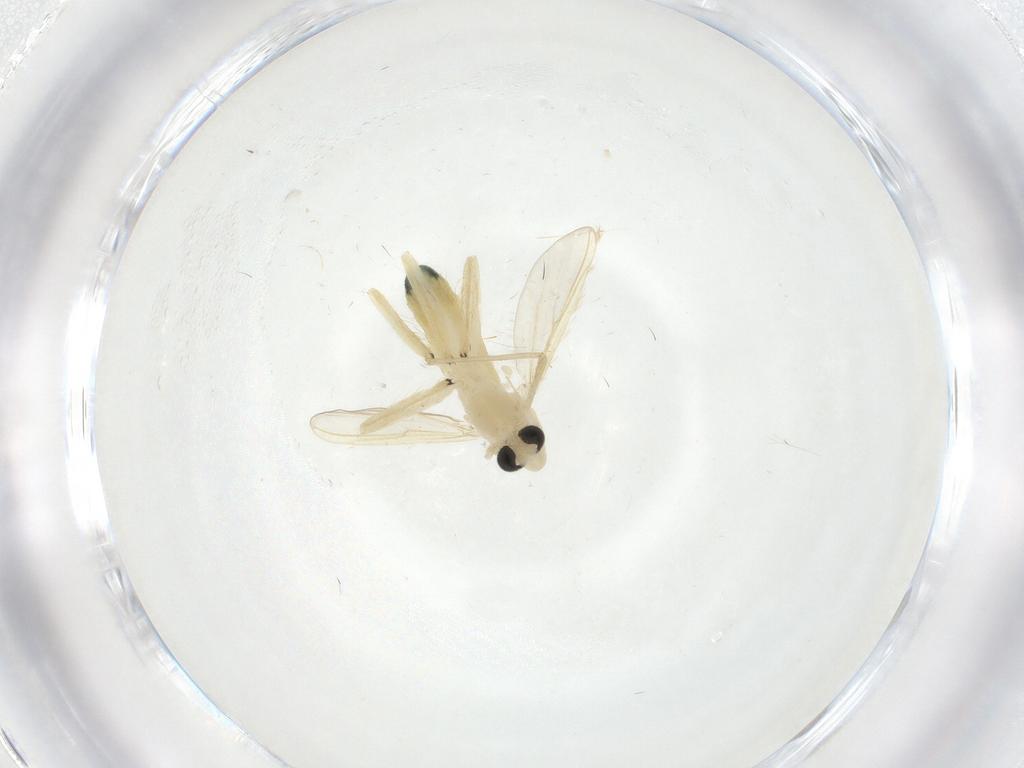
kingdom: Animalia
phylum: Arthropoda
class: Insecta
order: Diptera
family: Chironomidae
